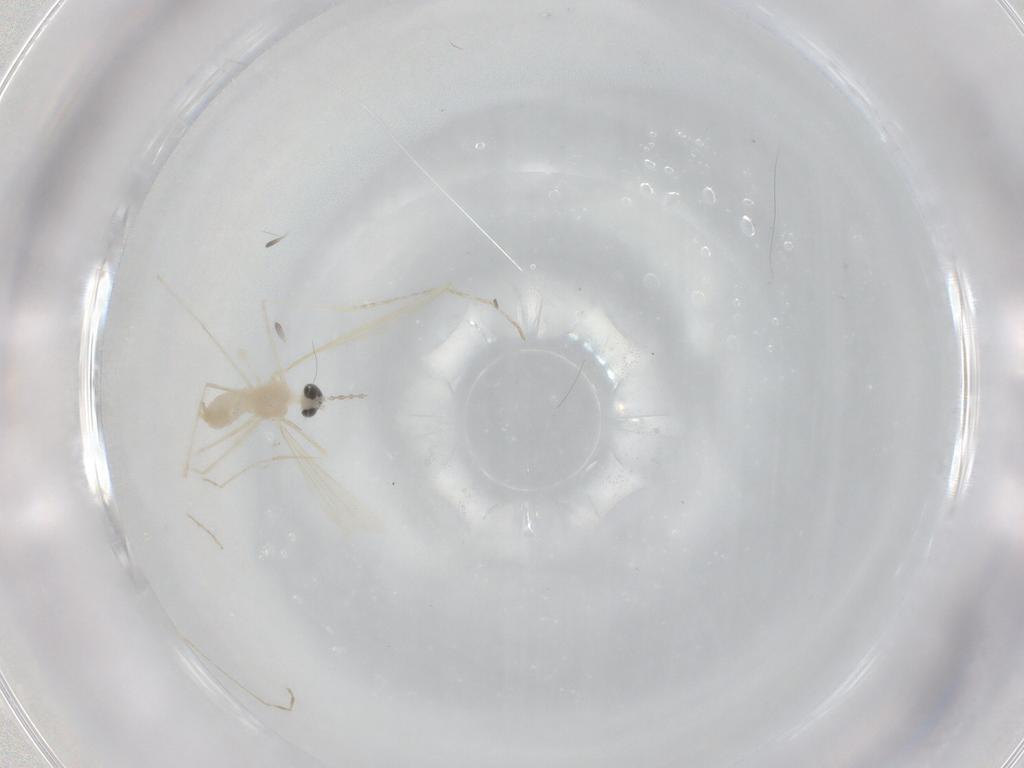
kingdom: Animalia
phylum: Arthropoda
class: Insecta
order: Diptera
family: Cecidomyiidae
